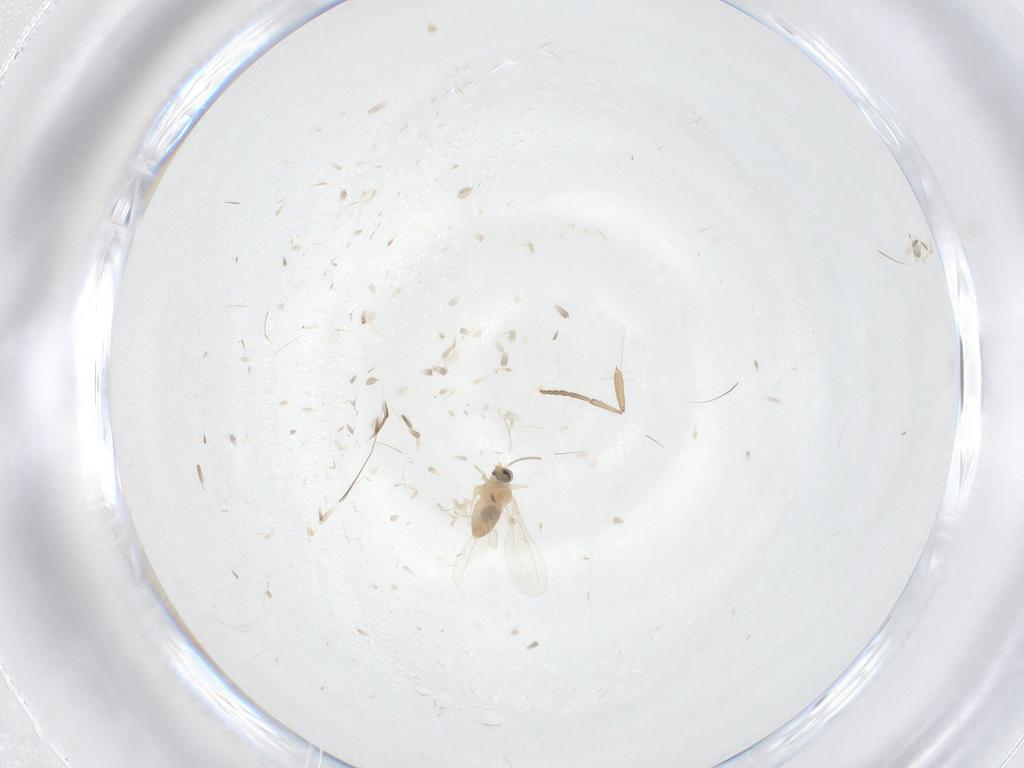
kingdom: Animalia
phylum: Arthropoda
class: Insecta
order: Diptera
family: Psychodidae
